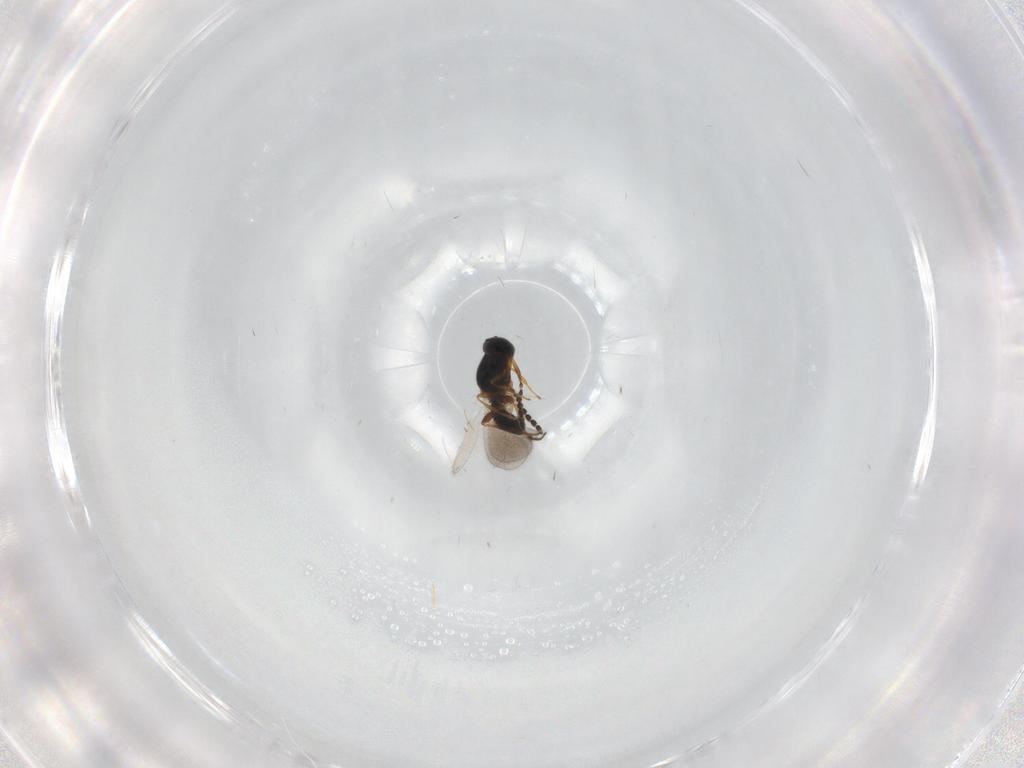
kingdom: Animalia
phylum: Arthropoda
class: Insecta
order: Hymenoptera
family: Platygastridae
